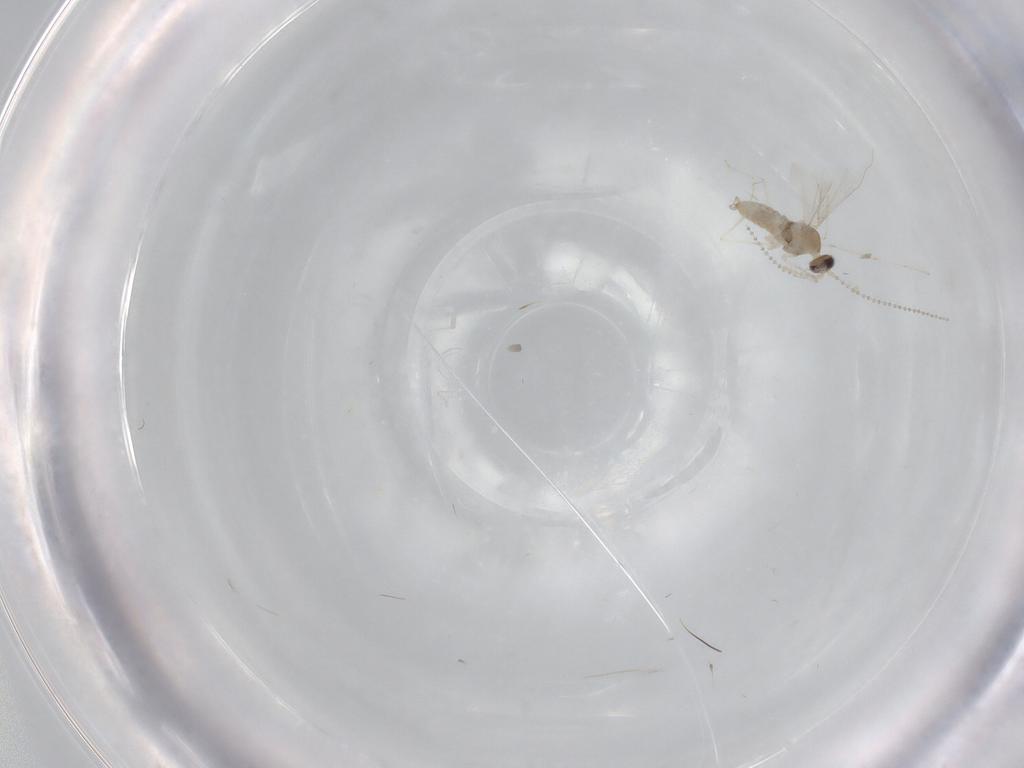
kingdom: Animalia
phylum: Arthropoda
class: Insecta
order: Diptera
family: Cecidomyiidae
